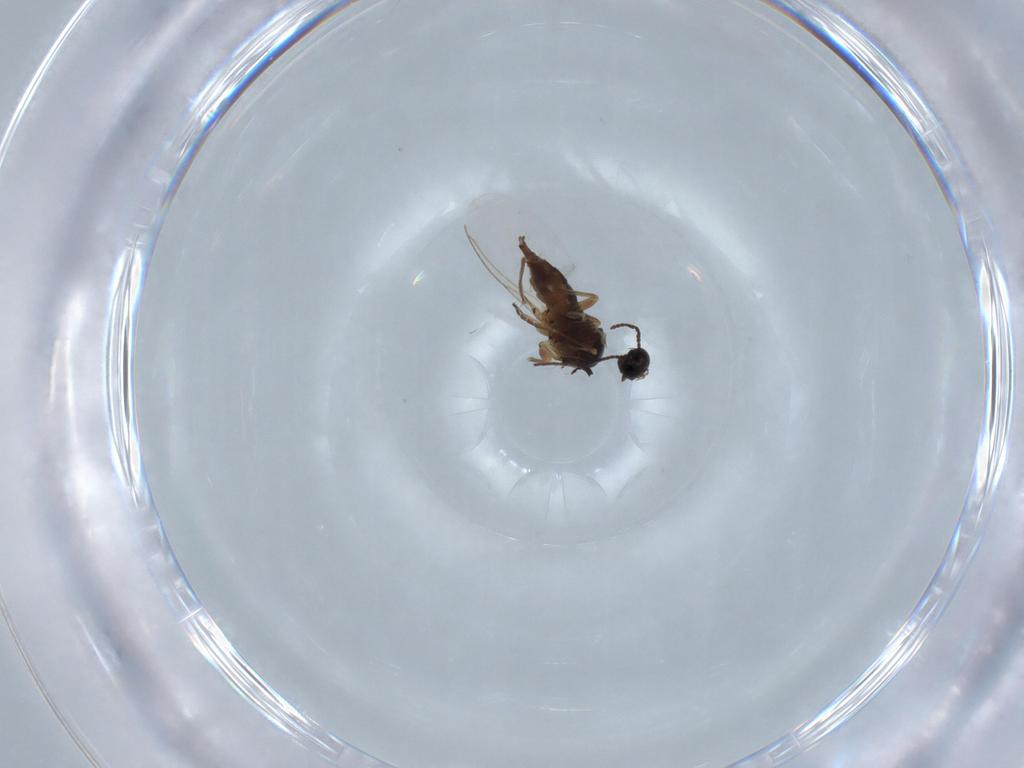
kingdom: Animalia
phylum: Arthropoda
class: Insecta
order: Diptera
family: Sciaridae
